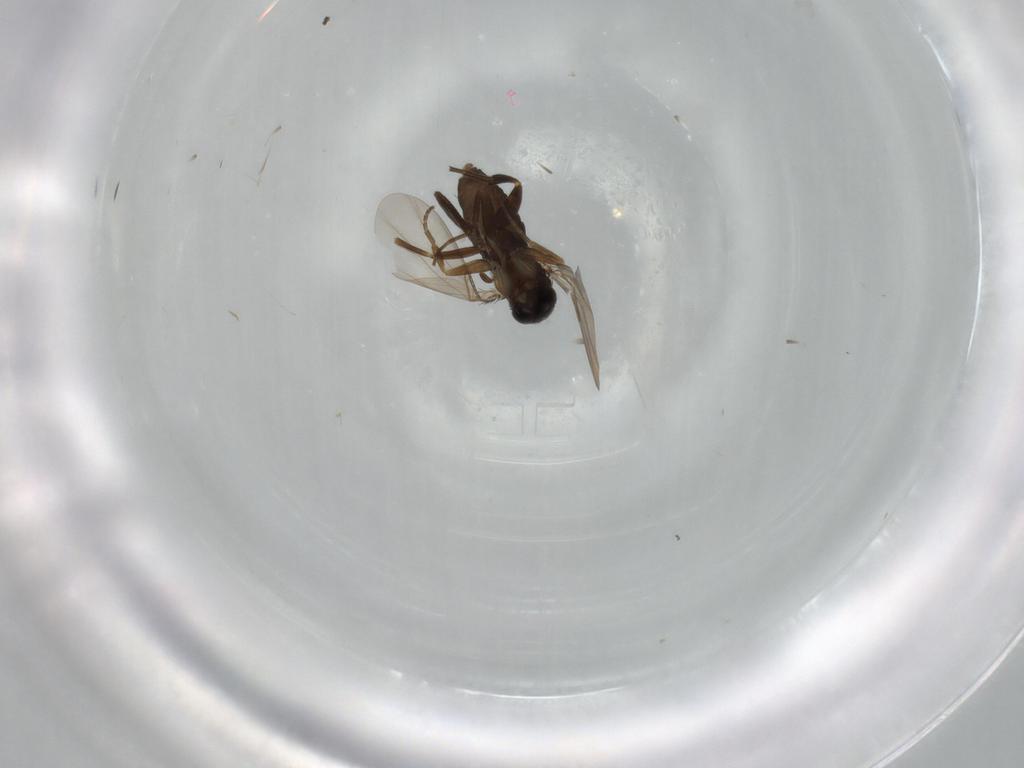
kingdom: Animalia
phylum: Arthropoda
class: Insecta
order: Diptera
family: Phoridae
